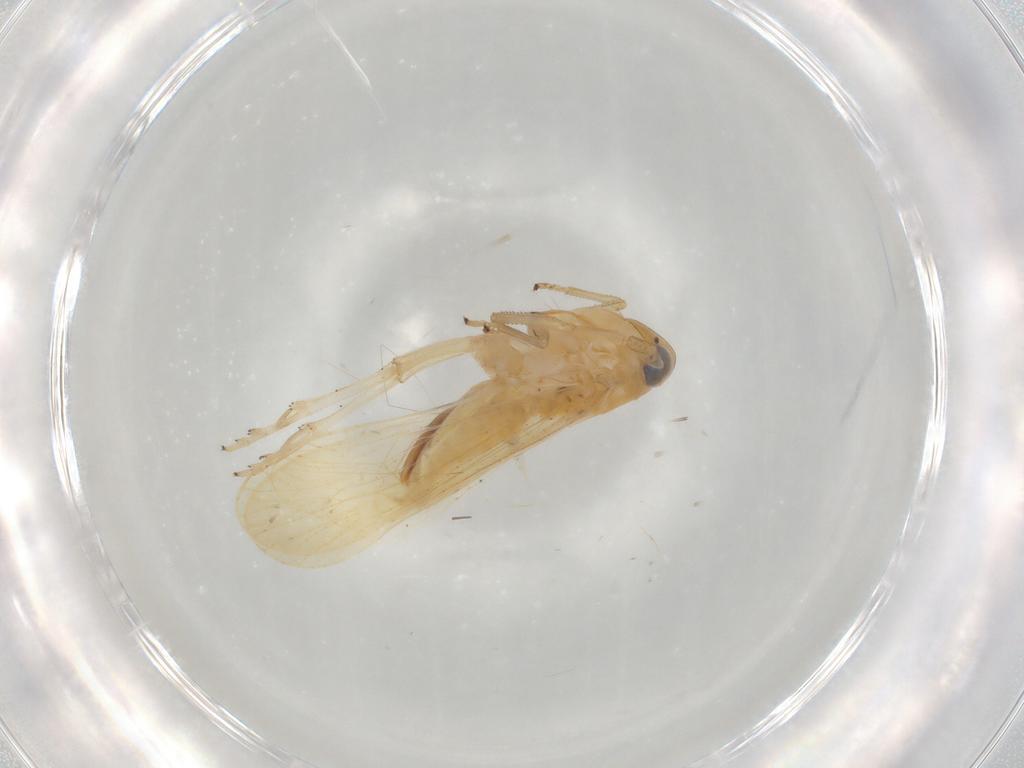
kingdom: Animalia
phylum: Arthropoda
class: Insecta
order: Hemiptera
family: Delphacidae
